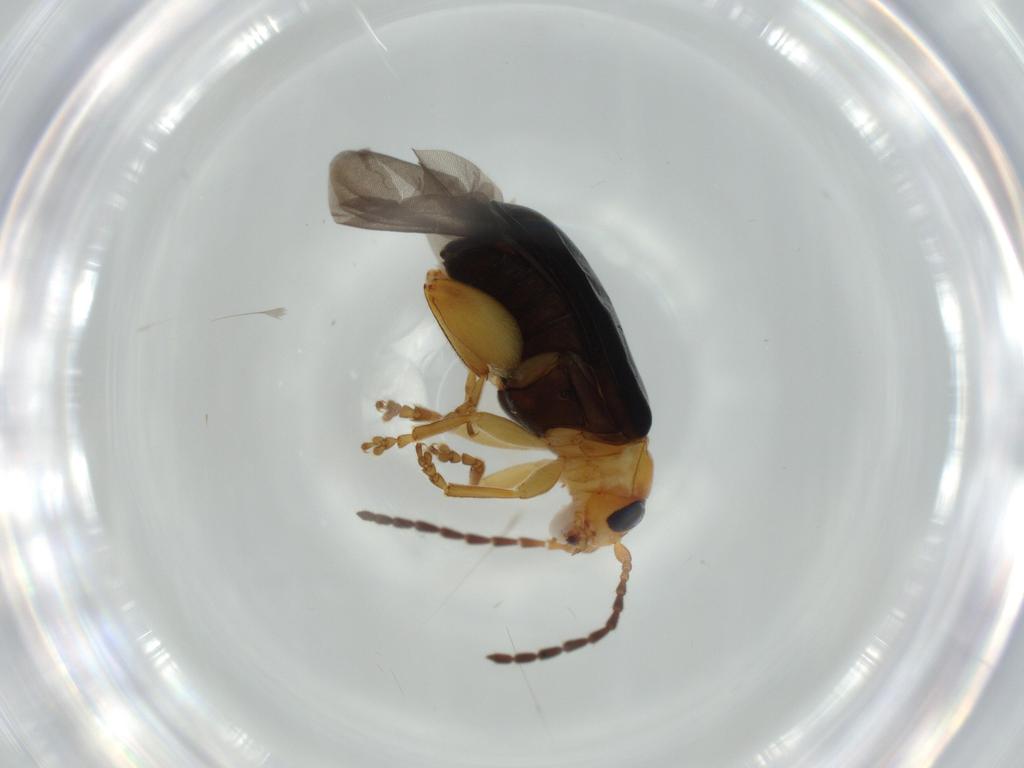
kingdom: Animalia
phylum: Arthropoda
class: Insecta
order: Coleoptera
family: Chrysomelidae
